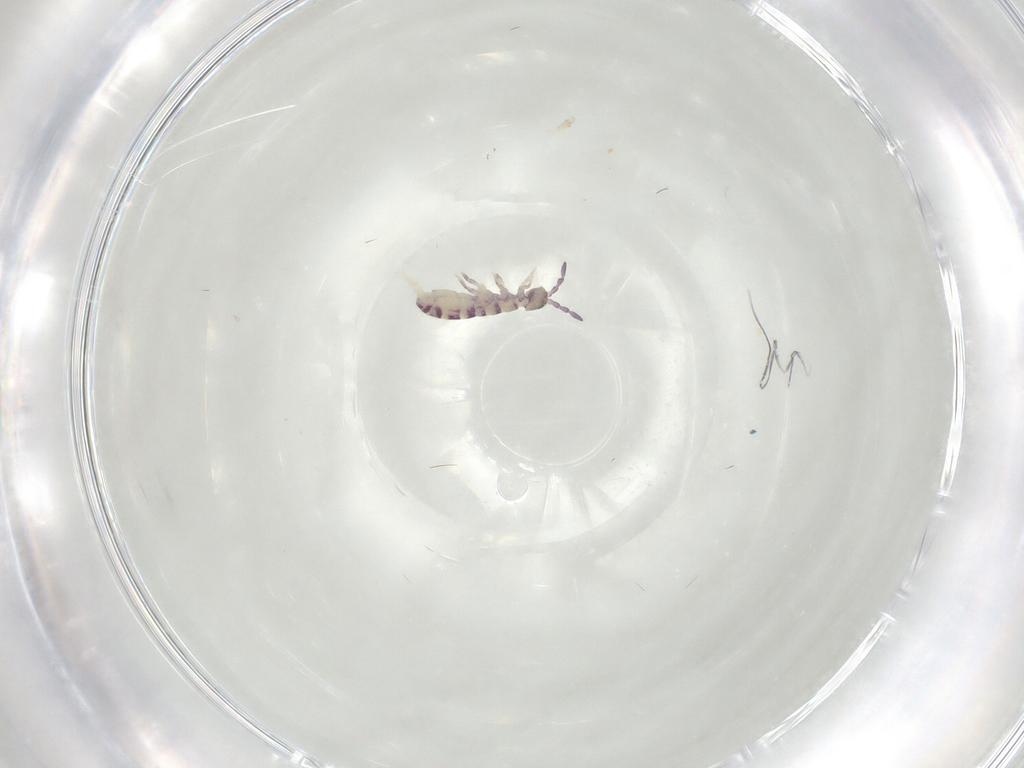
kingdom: Animalia
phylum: Arthropoda
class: Collembola
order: Entomobryomorpha
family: Isotomidae
